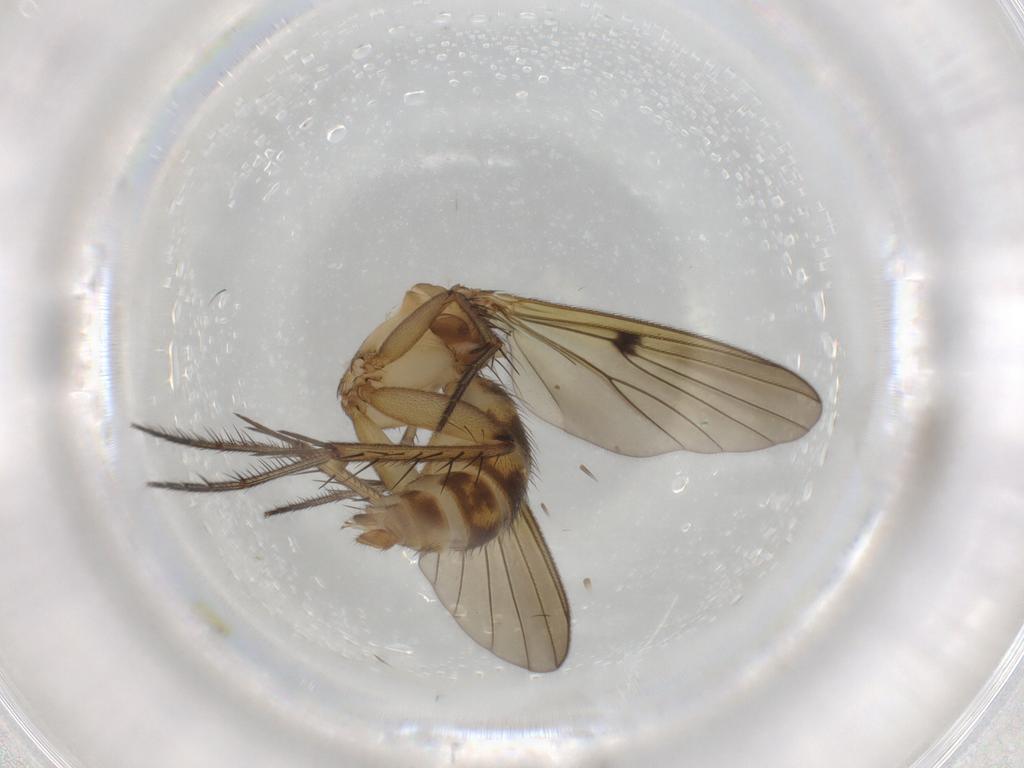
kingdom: Animalia
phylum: Arthropoda
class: Insecta
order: Diptera
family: Mycetophilidae
